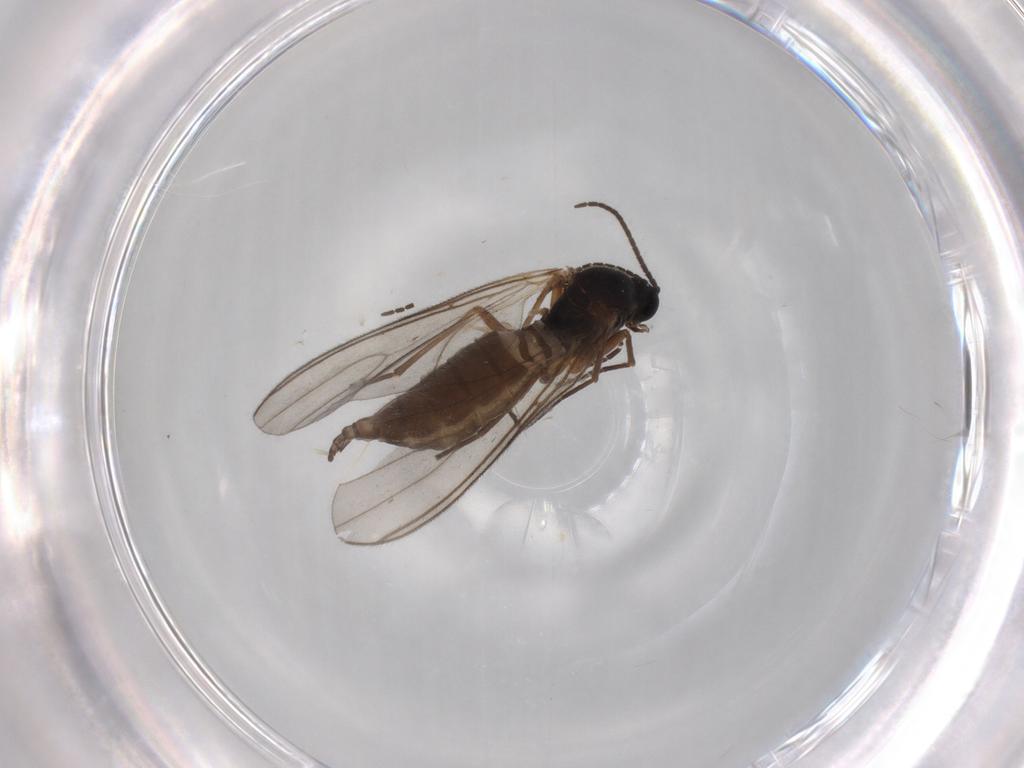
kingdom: Animalia
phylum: Arthropoda
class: Insecta
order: Diptera
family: Sciaridae
